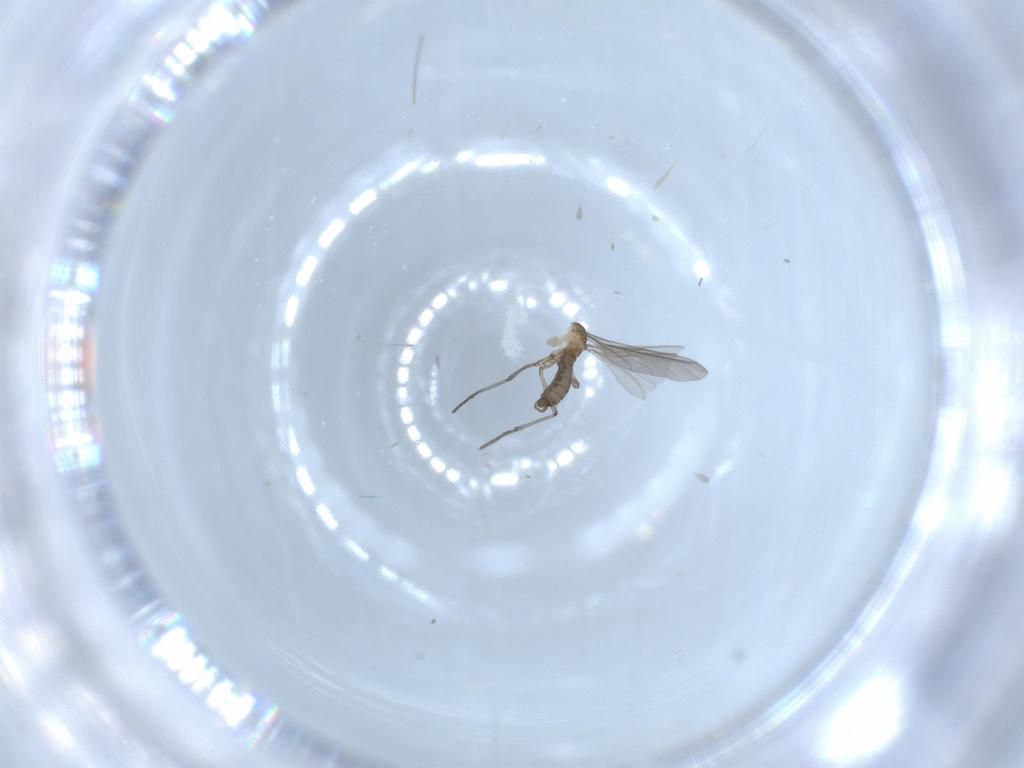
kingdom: Animalia
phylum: Arthropoda
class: Insecta
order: Diptera
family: Sciaridae
